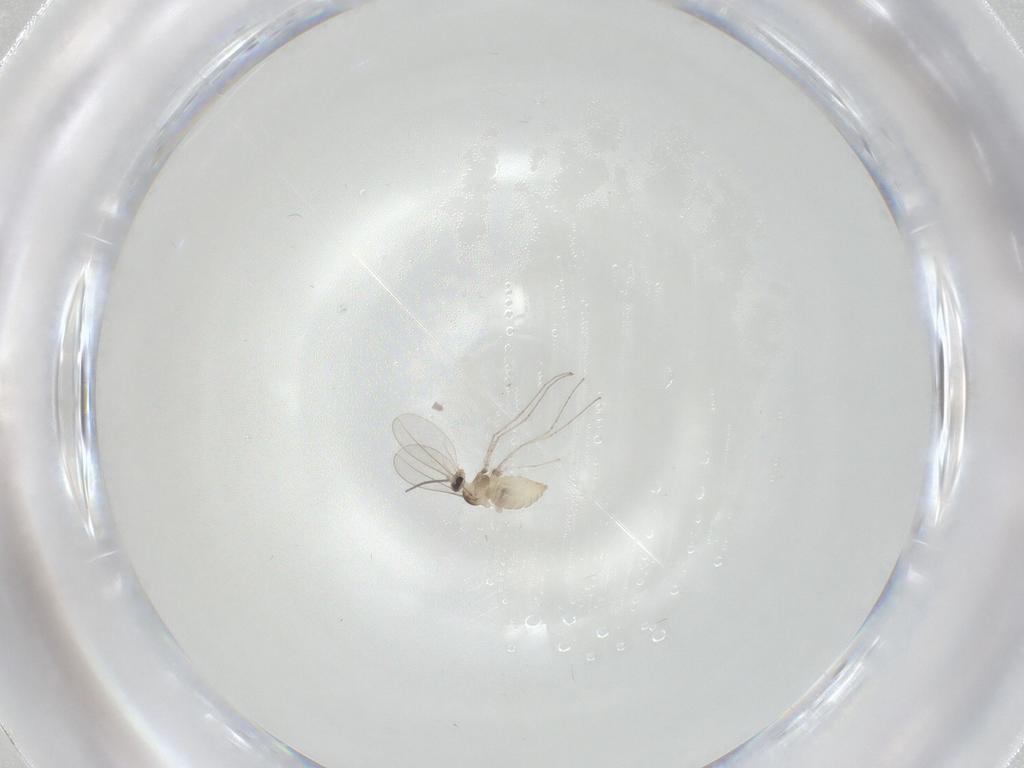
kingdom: Animalia
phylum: Arthropoda
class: Insecta
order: Diptera
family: Cecidomyiidae
